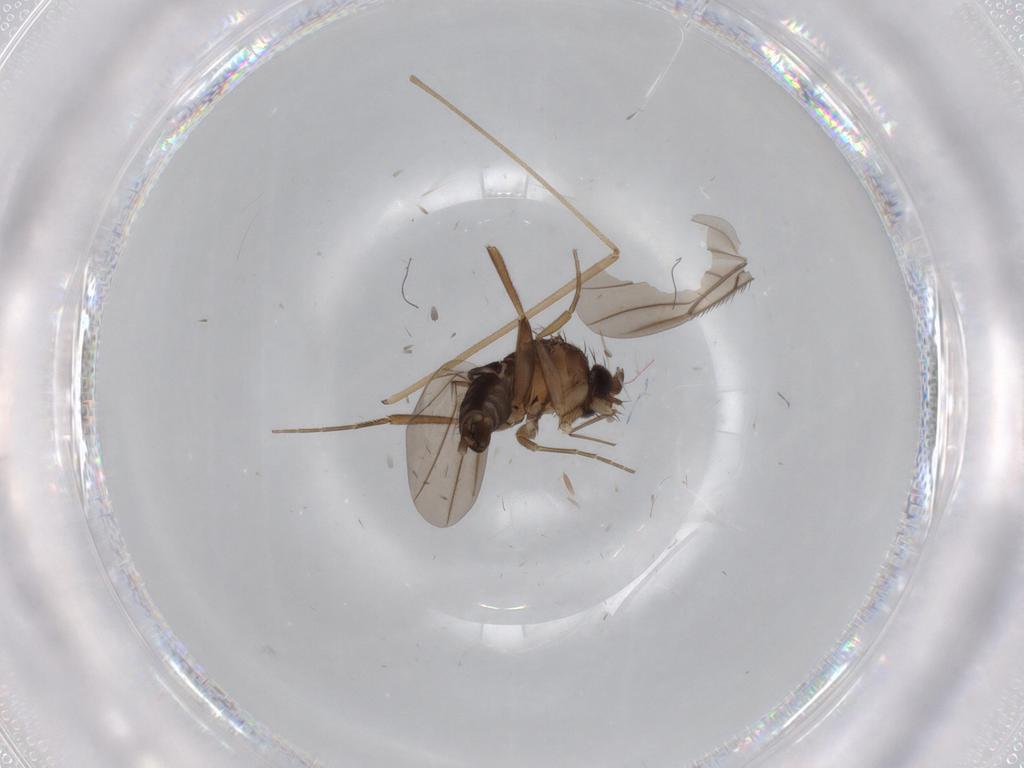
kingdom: Animalia
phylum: Arthropoda
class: Insecta
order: Diptera
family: Limoniidae
